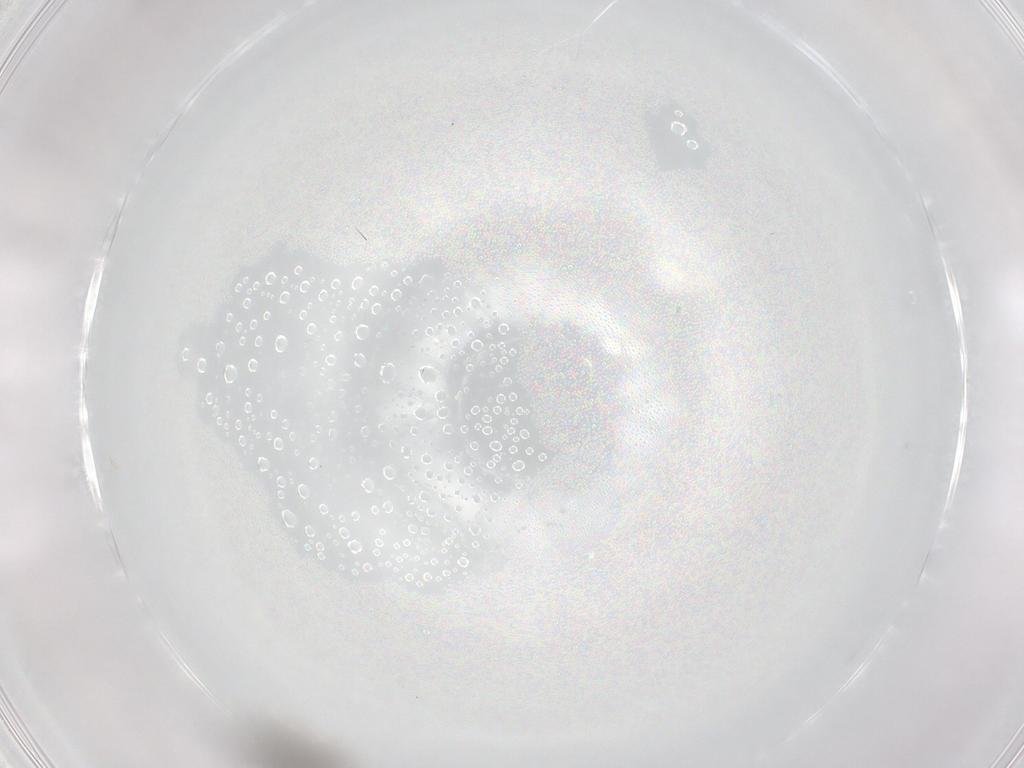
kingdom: Animalia
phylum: Arthropoda
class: Insecta
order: Diptera
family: Sciaridae
